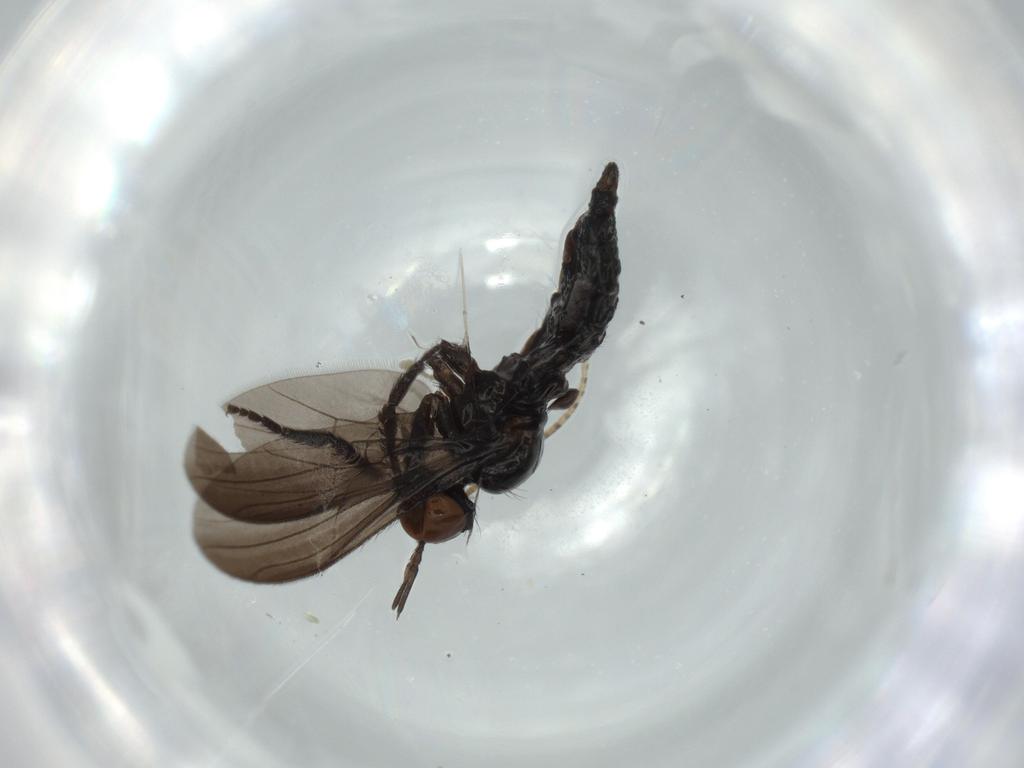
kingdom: Animalia
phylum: Arthropoda
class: Insecta
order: Diptera
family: Empididae
